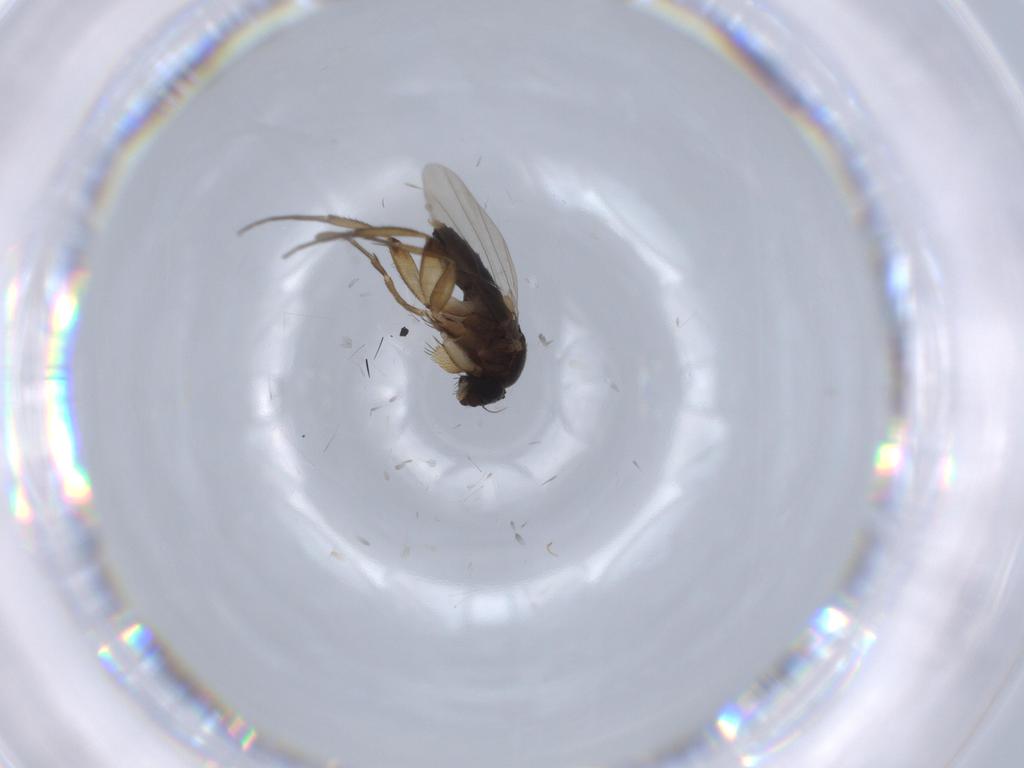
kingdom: Animalia
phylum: Arthropoda
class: Insecta
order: Diptera
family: Phoridae
